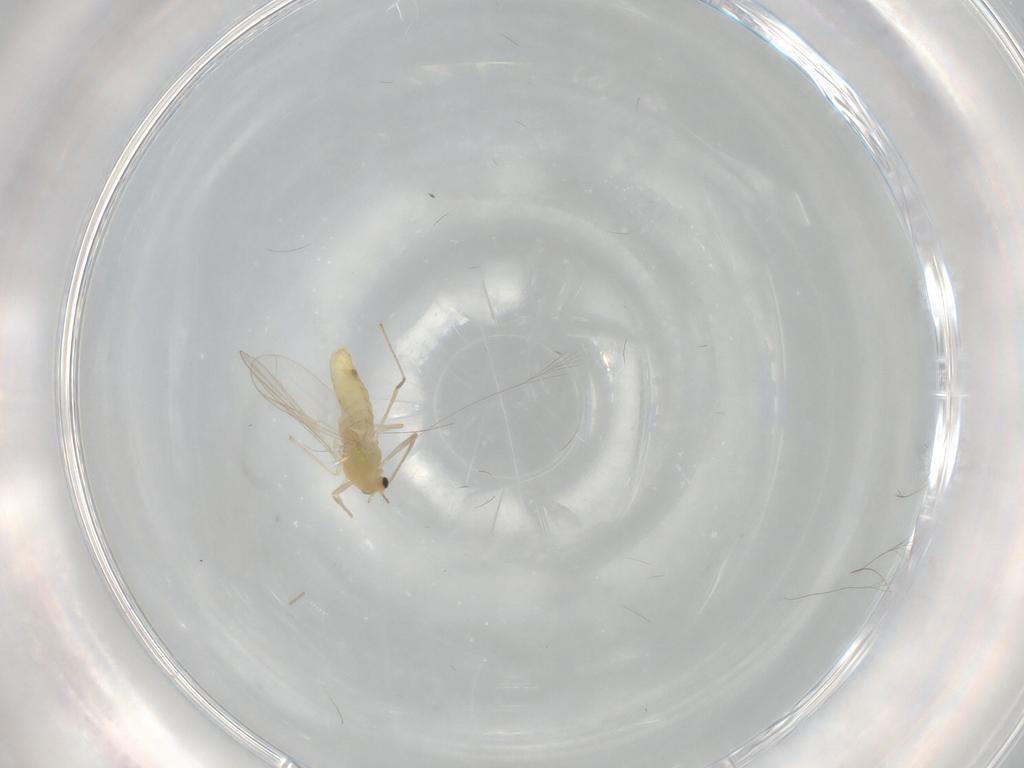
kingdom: Animalia
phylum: Arthropoda
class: Insecta
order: Diptera
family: Chironomidae
